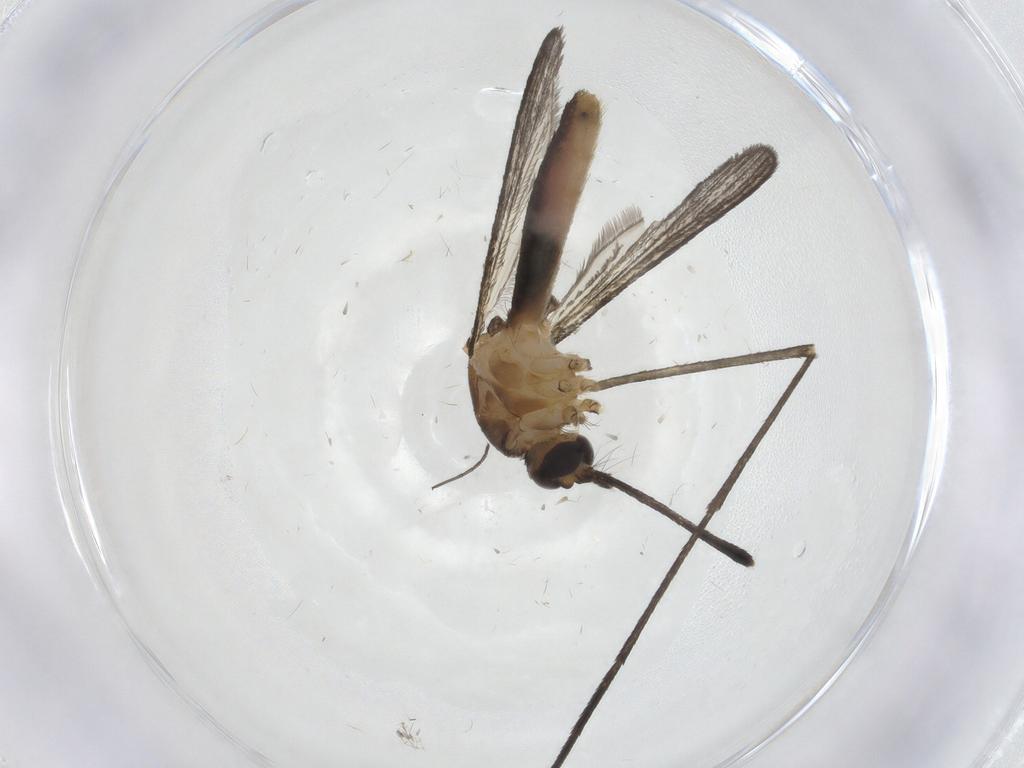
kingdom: Animalia
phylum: Arthropoda
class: Insecta
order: Diptera
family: Culicidae
